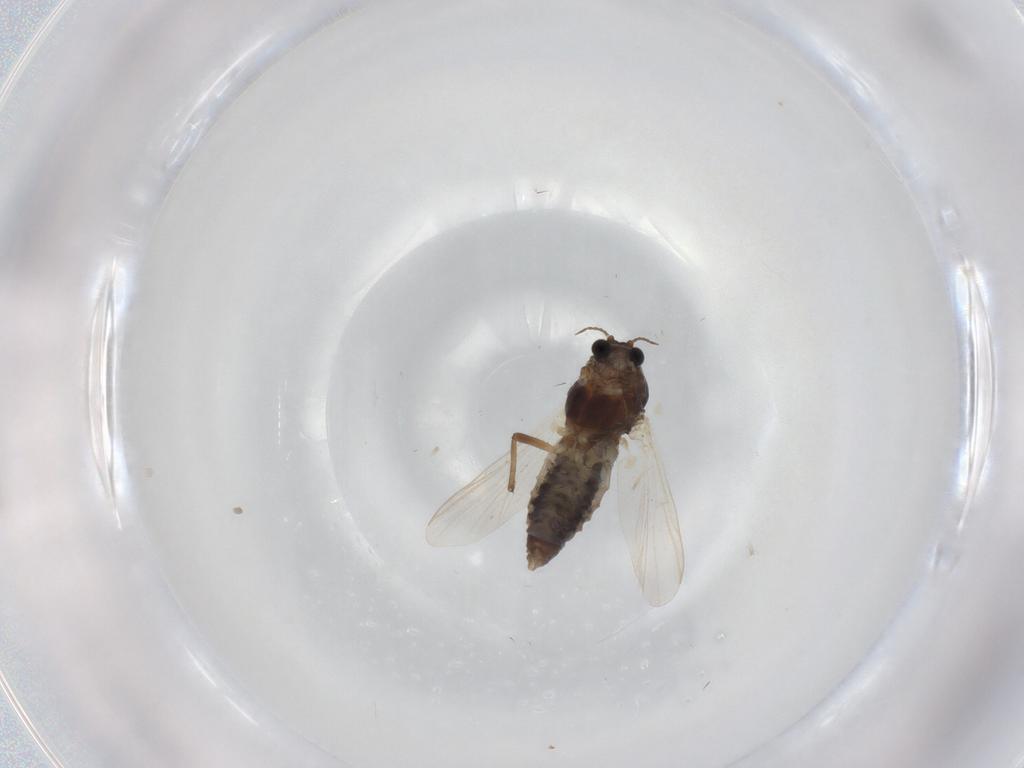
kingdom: Animalia
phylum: Arthropoda
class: Insecta
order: Diptera
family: Chironomidae
